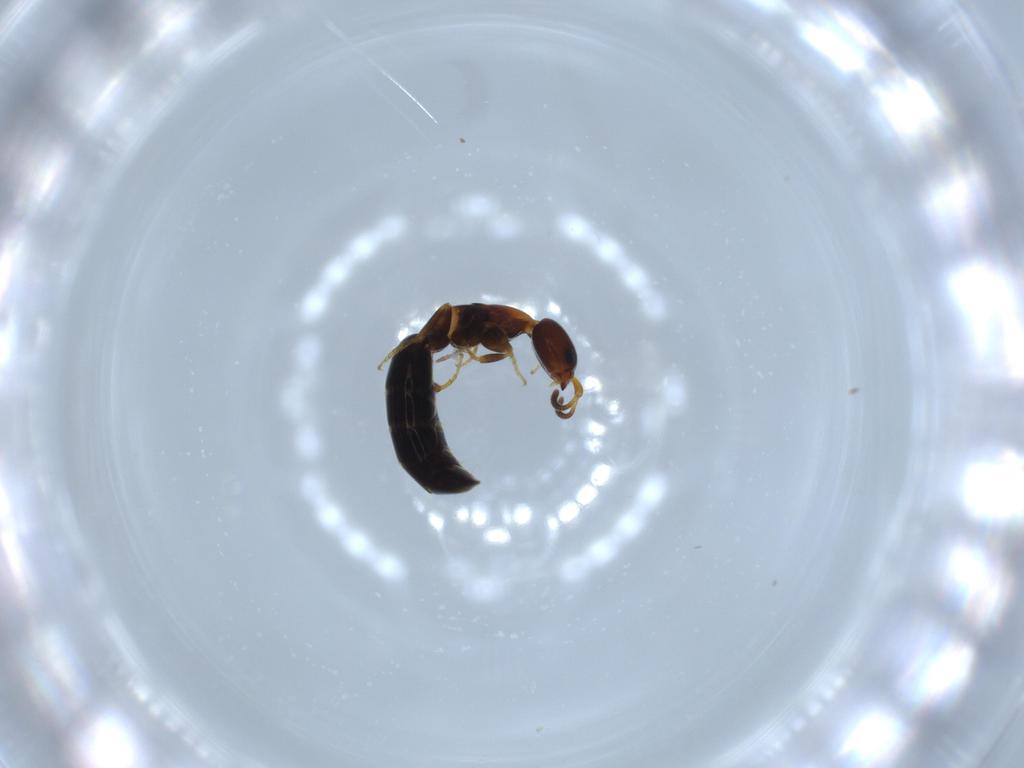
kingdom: Animalia
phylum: Arthropoda
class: Insecta
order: Hymenoptera
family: Bethylidae
